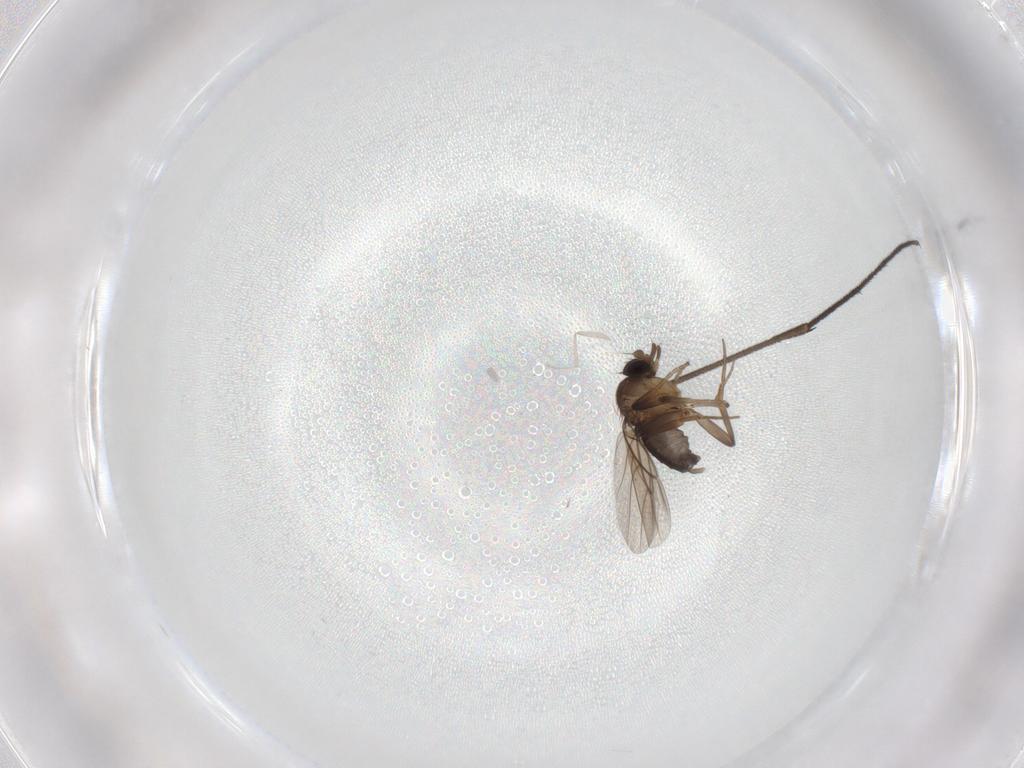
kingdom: Animalia
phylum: Arthropoda
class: Insecta
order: Diptera
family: Phoridae
